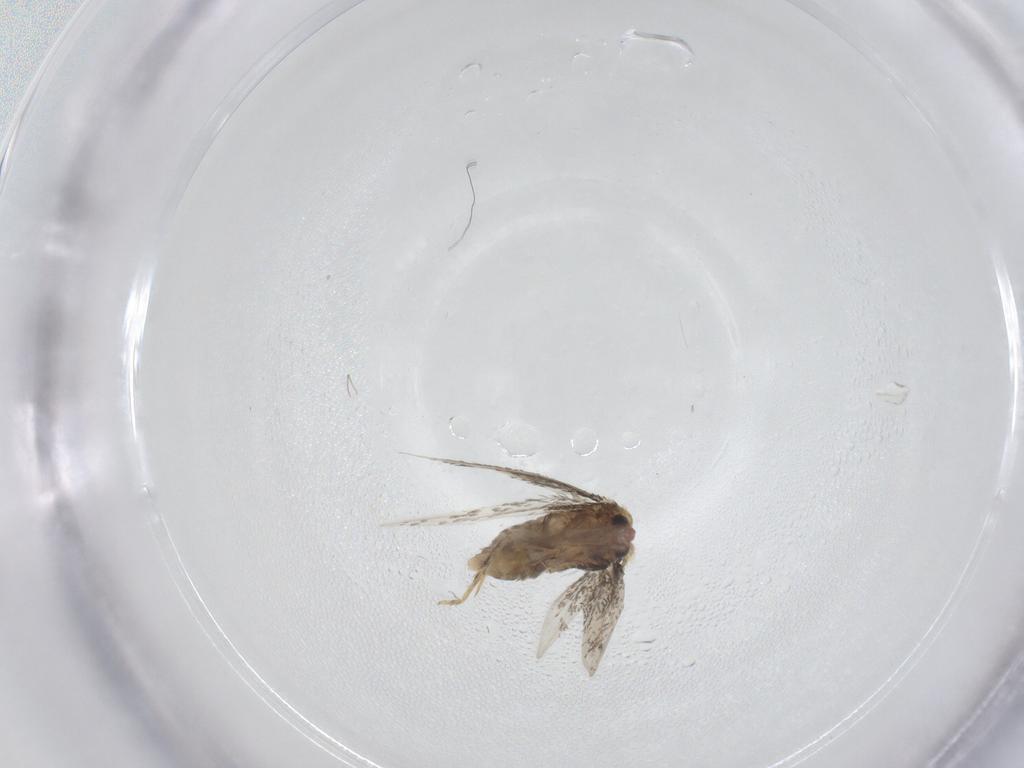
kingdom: Animalia
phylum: Arthropoda
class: Insecta
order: Lepidoptera
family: Nepticulidae
